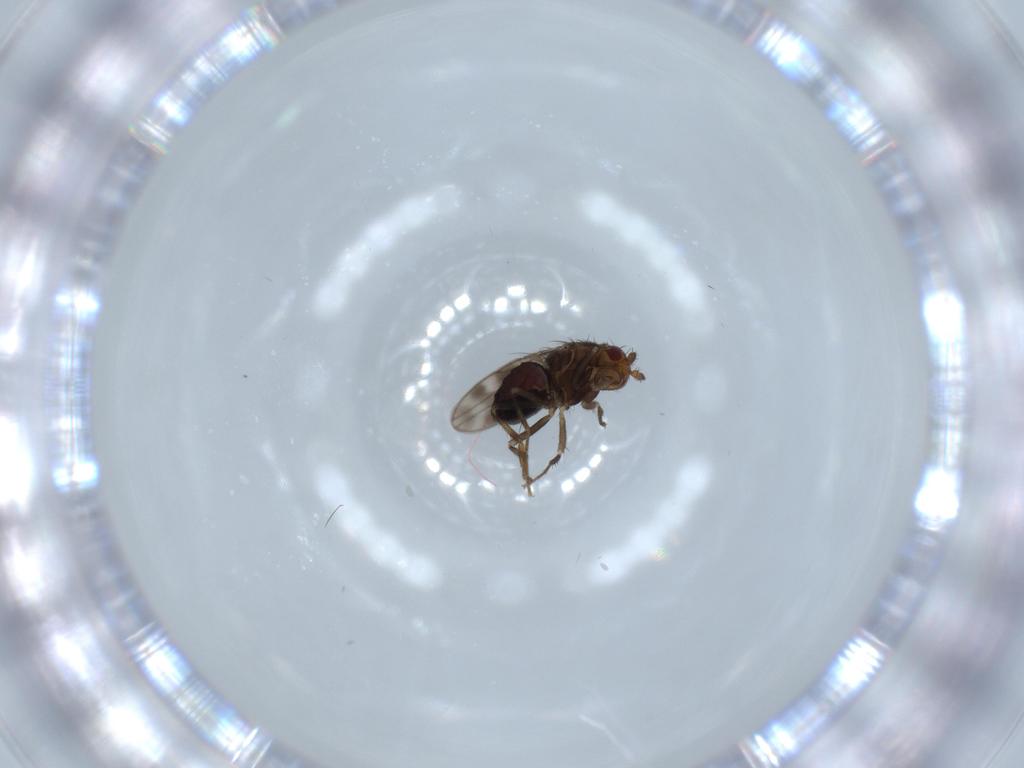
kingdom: Animalia
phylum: Arthropoda
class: Insecta
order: Diptera
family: Sphaeroceridae
